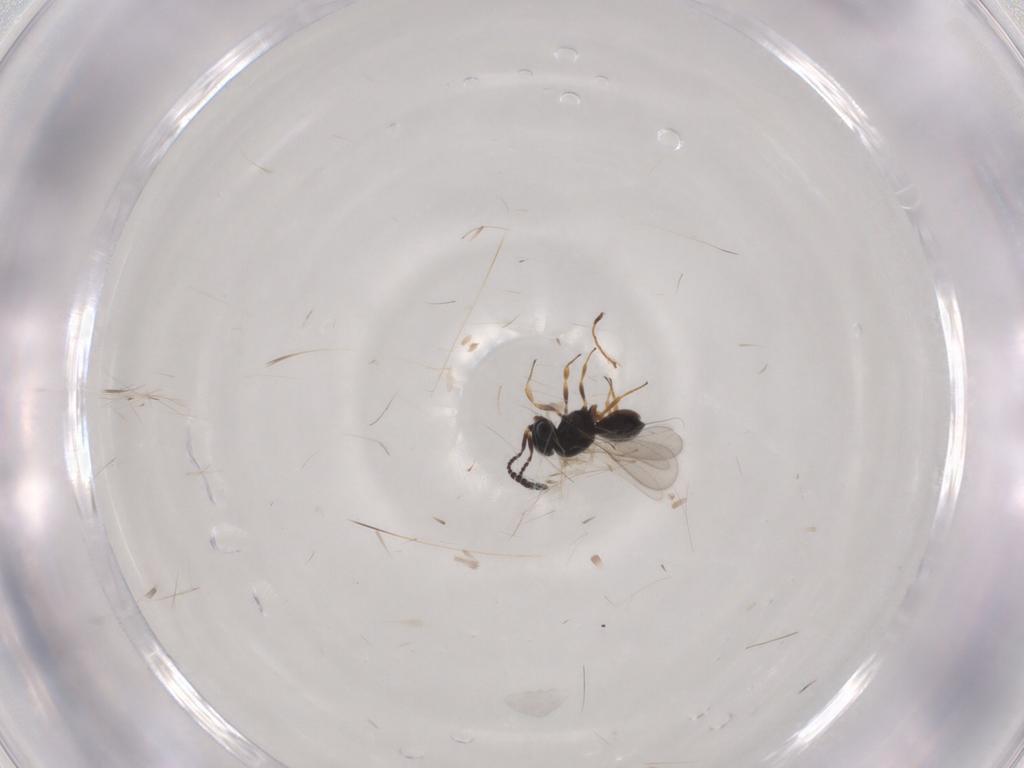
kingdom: Animalia
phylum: Arthropoda
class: Insecta
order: Hymenoptera
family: Scelionidae
